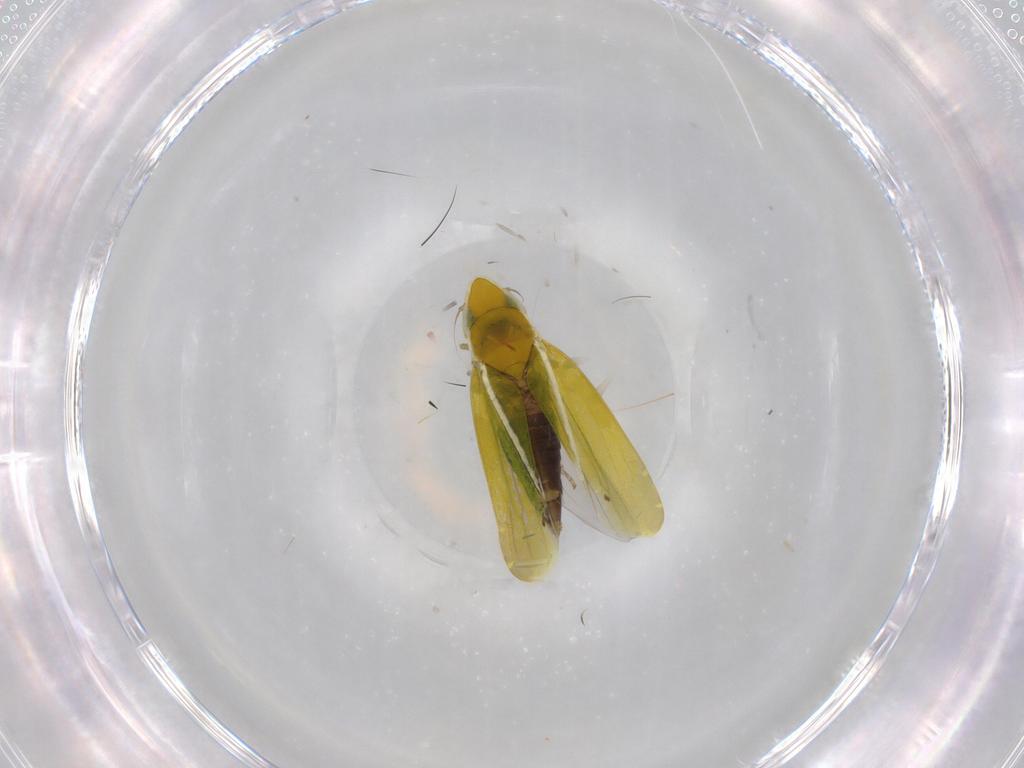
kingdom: Animalia
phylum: Arthropoda
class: Insecta
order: Hemiptera
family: Cicadellidae
